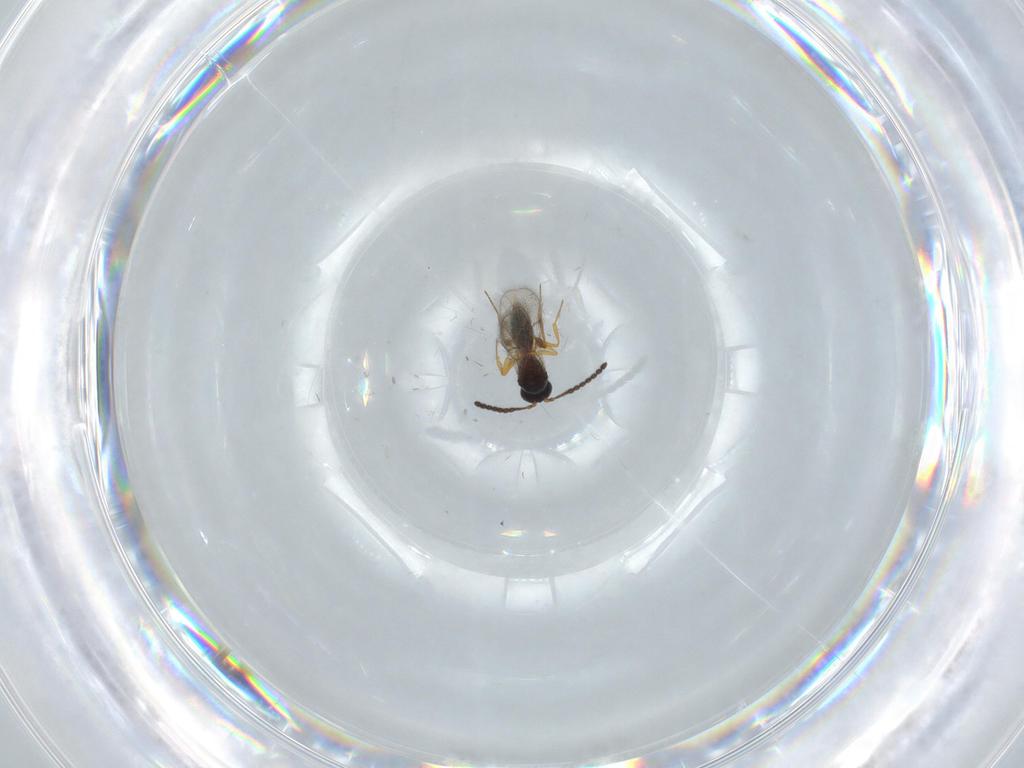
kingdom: Animalia
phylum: Arthropoda
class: Insecta
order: Hymenoptera
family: Figitidae
